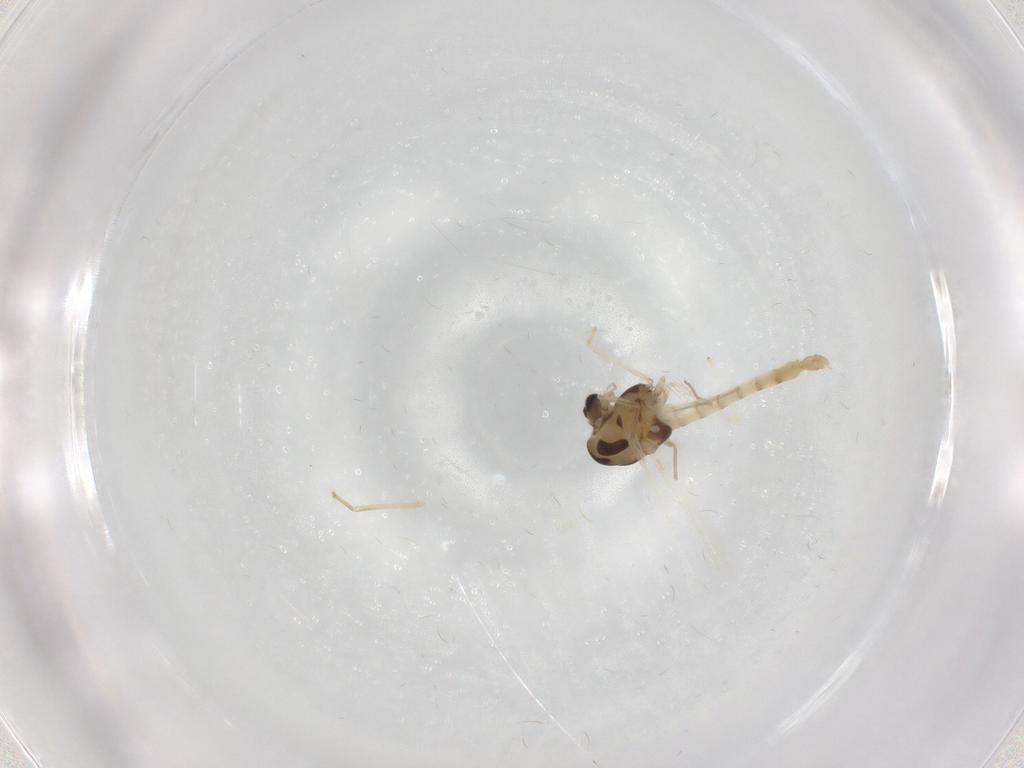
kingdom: Animalia
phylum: Arthropoda
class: Insecta
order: Diptera
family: Chironomidae
